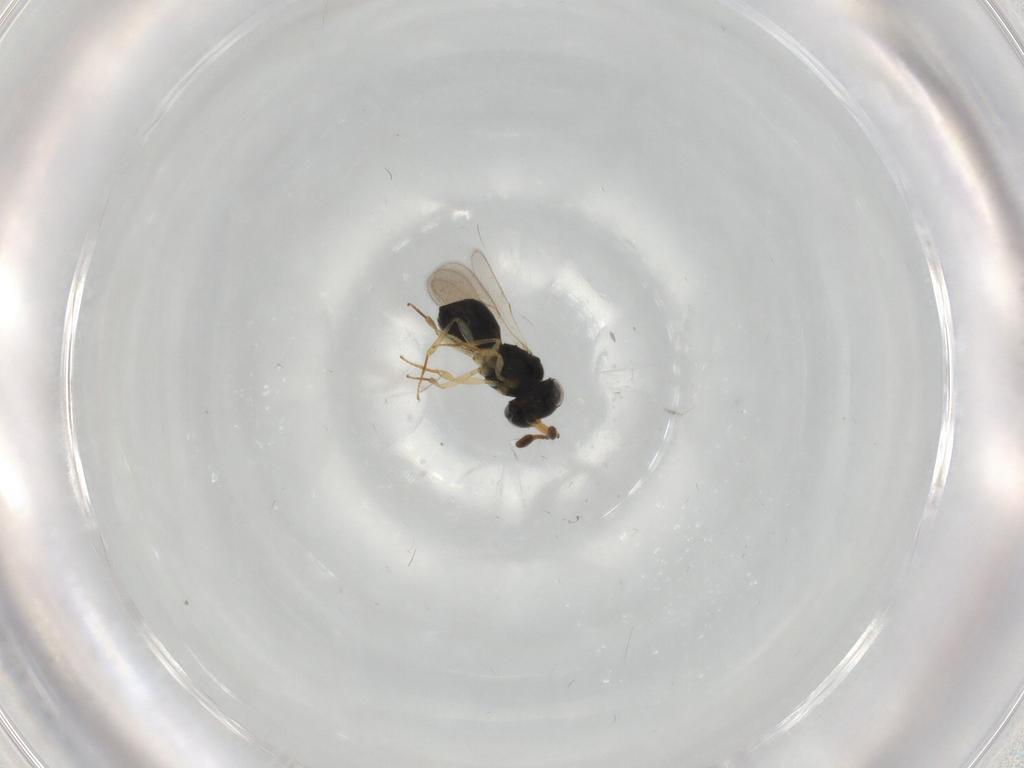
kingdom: Animalia
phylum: Arthropoda
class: Insecta
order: Hymenoptera
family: Scelionidae
